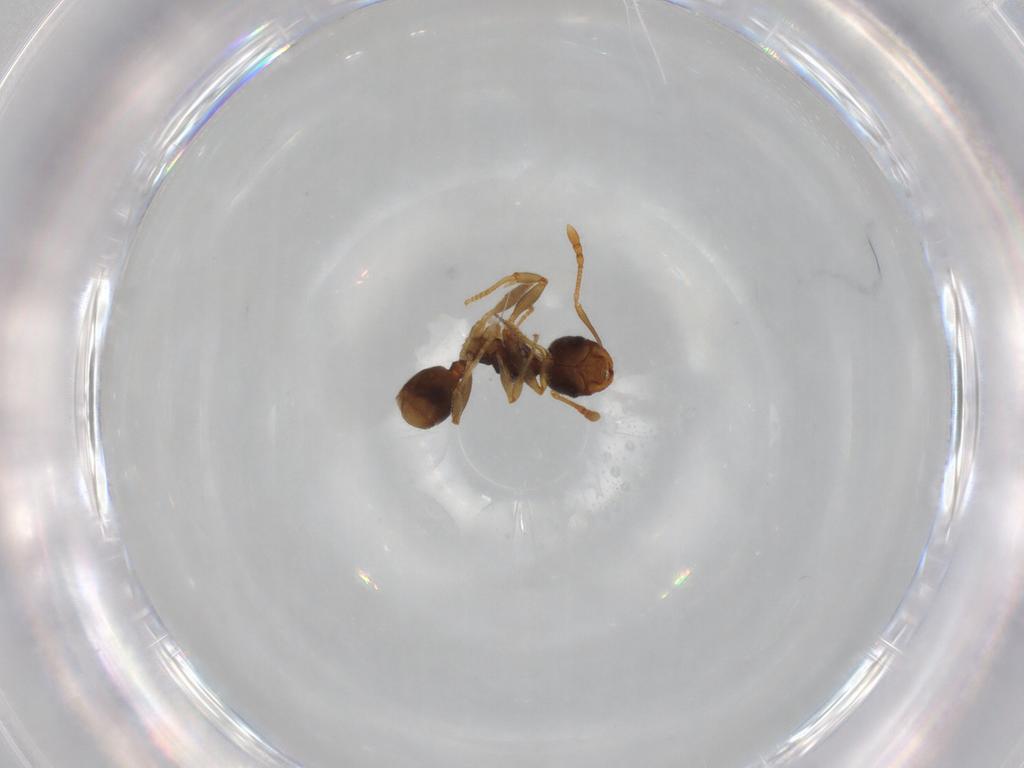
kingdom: Animalia
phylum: Arthropoda
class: Insecta
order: Hymenoptera
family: Formicidae
